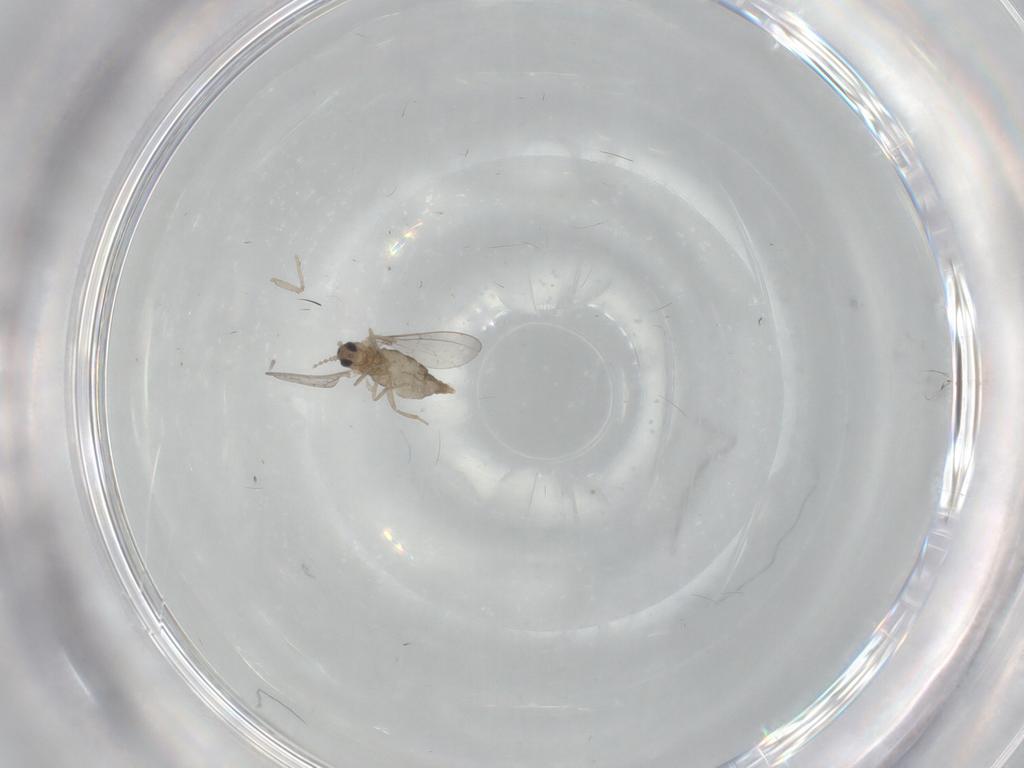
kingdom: Animalia
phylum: Arthropoda
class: Insecta
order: Diptera
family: Cecidomyiidae
